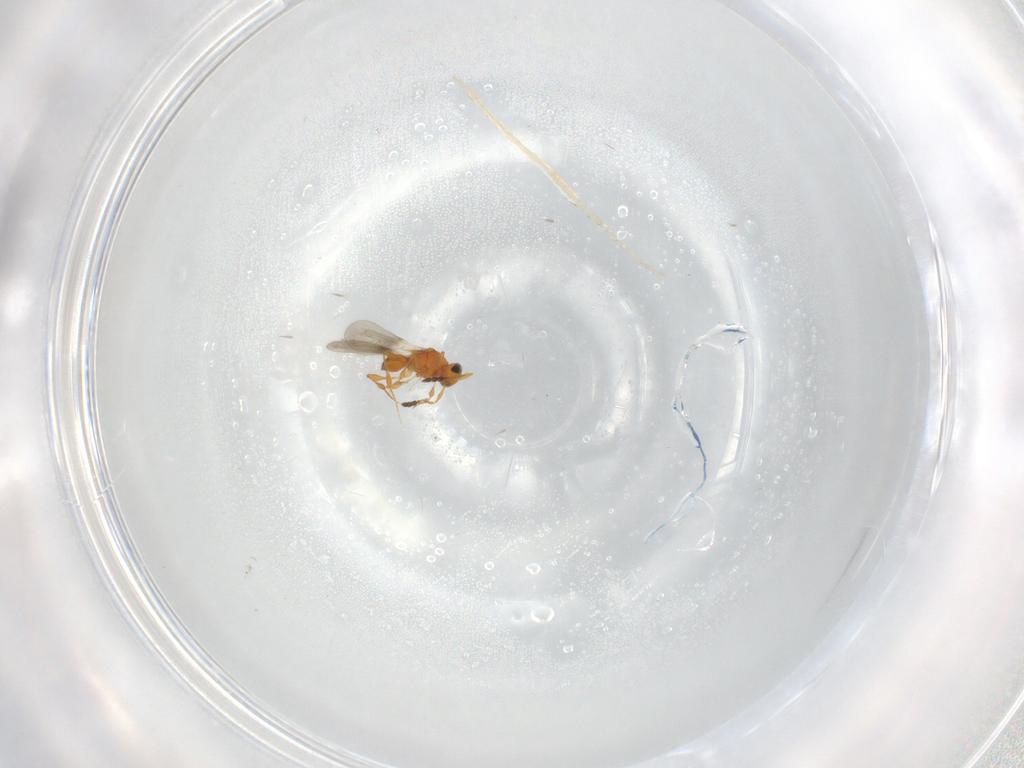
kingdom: Animalia
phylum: Arthropoda
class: Insecta
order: Hymenoptera
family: Platygastridae
